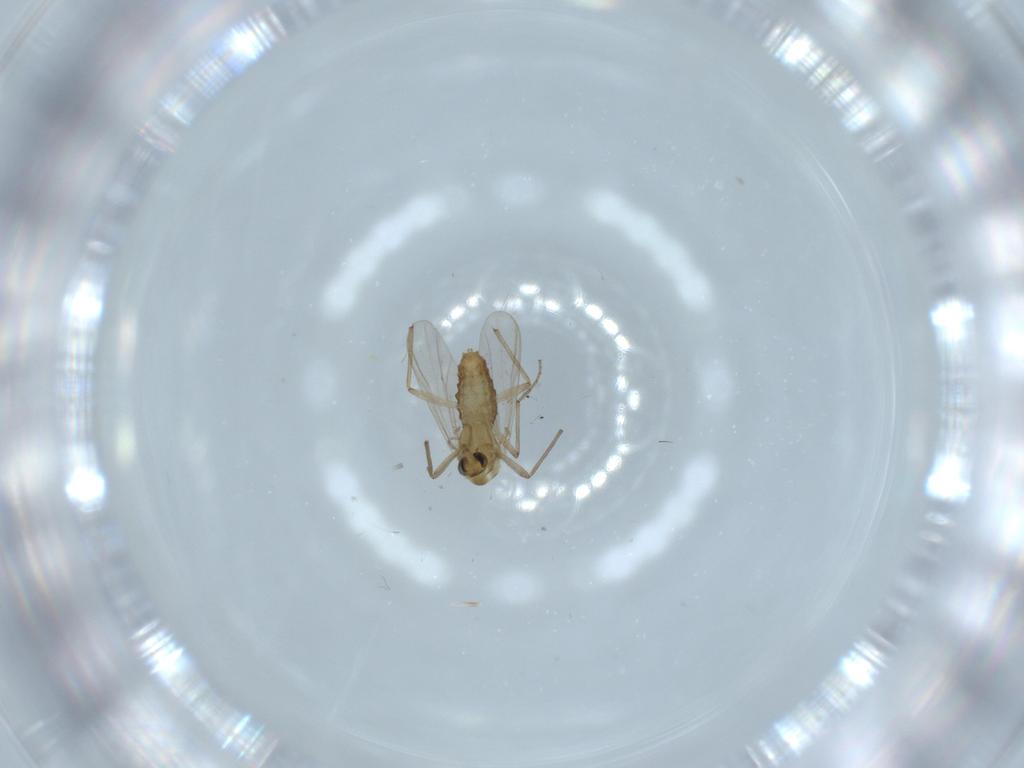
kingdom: Animalia
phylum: Arthropoda
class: Insecta
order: Diptera
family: Chironomidae
